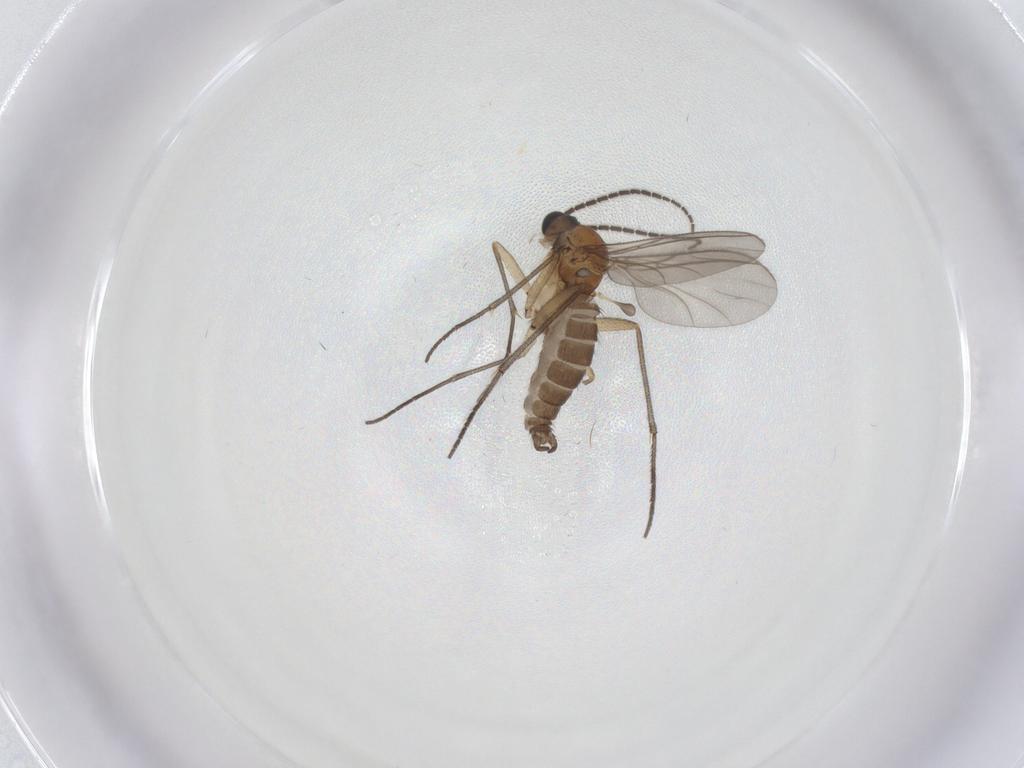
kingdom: Animalia
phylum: Arthropoda
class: Insecta
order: Diptera
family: Sciaridae
